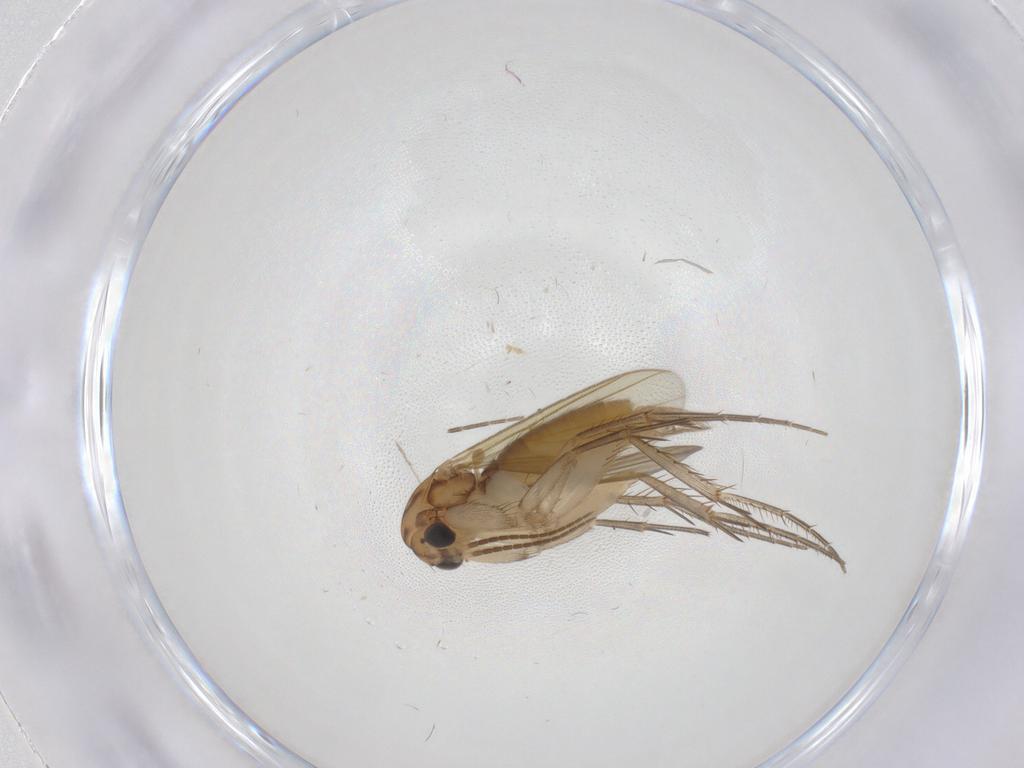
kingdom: Animalia
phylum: Arthropoda
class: Insecta
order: Diptera
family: Mycetophilidae
